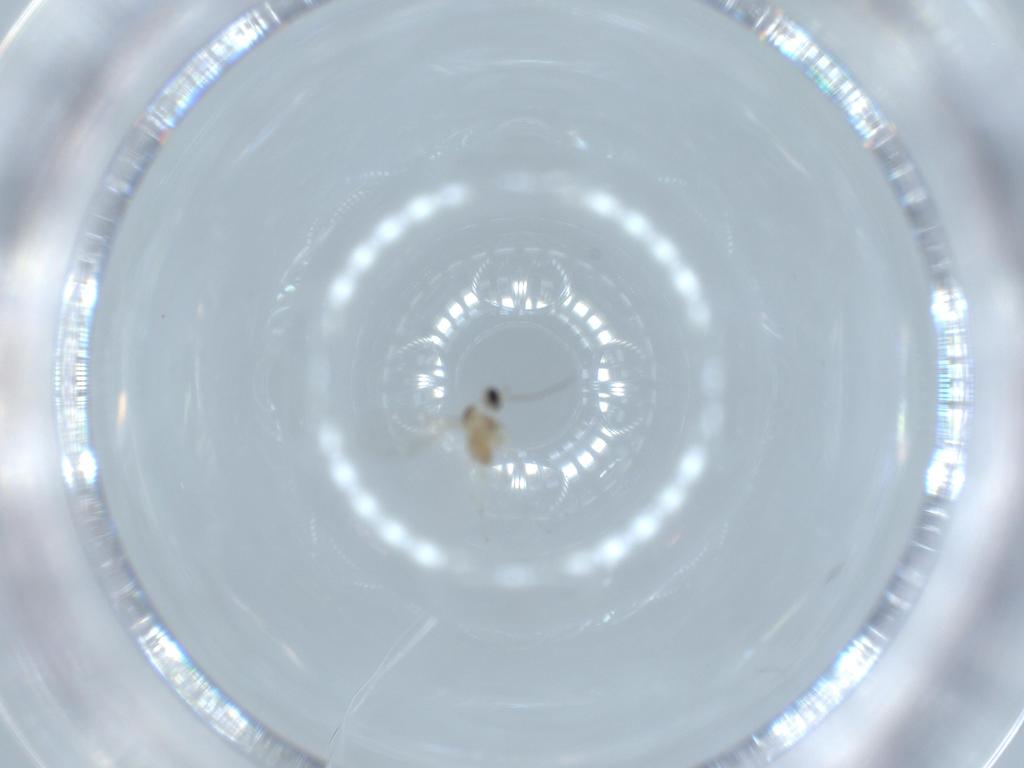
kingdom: Animalia
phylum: Arthropoda
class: Insecta
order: Diptera
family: Cecidomyiidae
